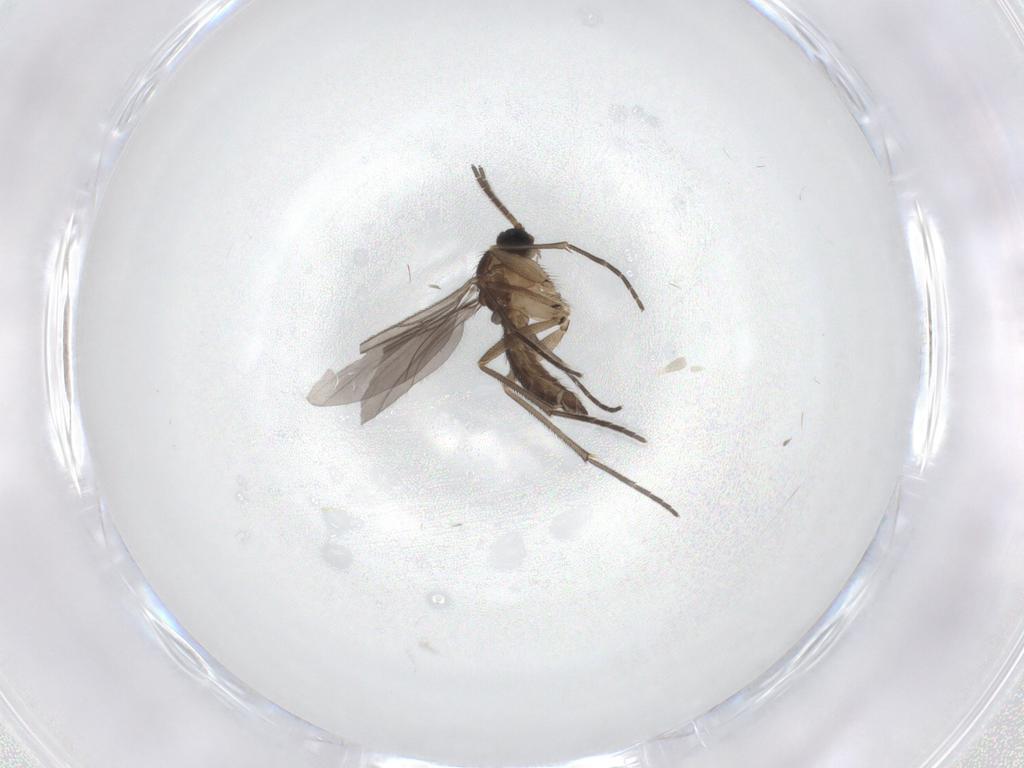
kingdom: Animalia
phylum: Arthropoda
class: Insecta
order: Diptera
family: Sciaridae
